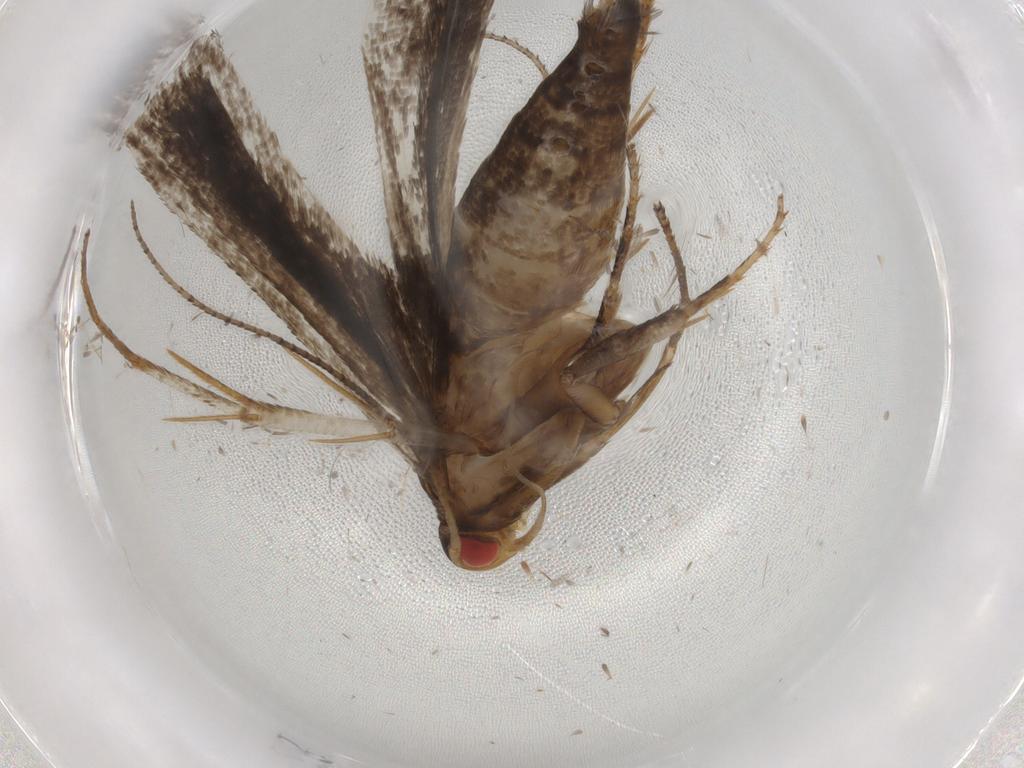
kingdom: Animalia
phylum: Arthropoda
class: Insecta
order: Lepidoptera
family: Gelechiidae
